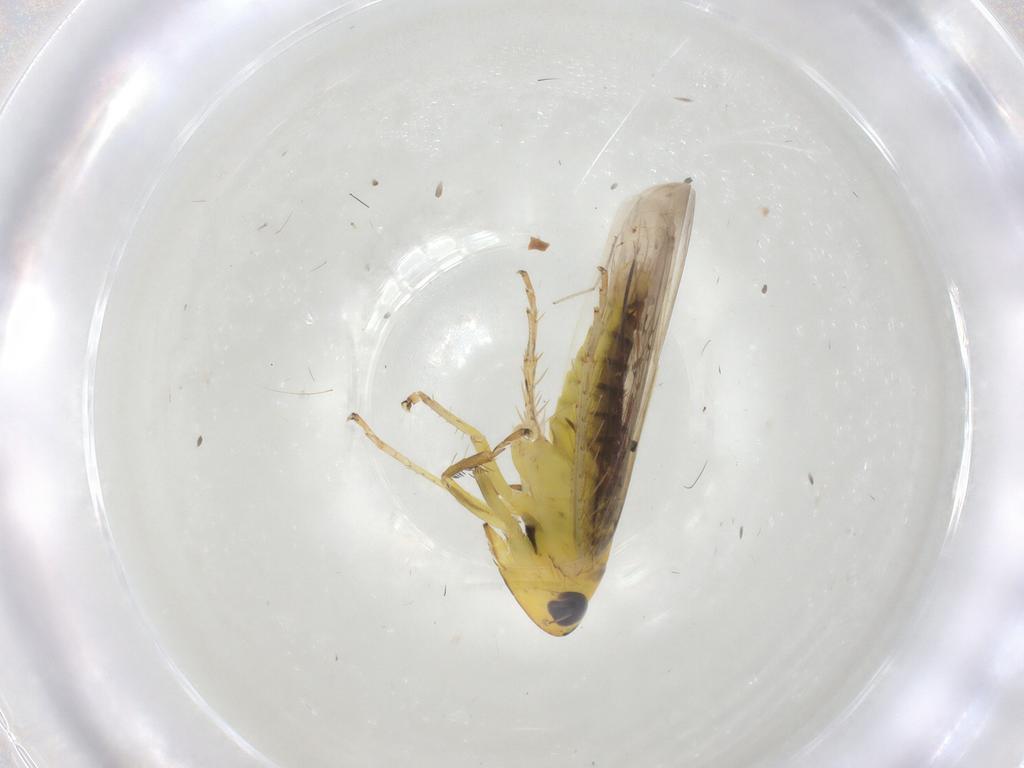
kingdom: Animalia
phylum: Arthropoda
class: Insecta
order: Hemiptera
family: Cicadellidae
